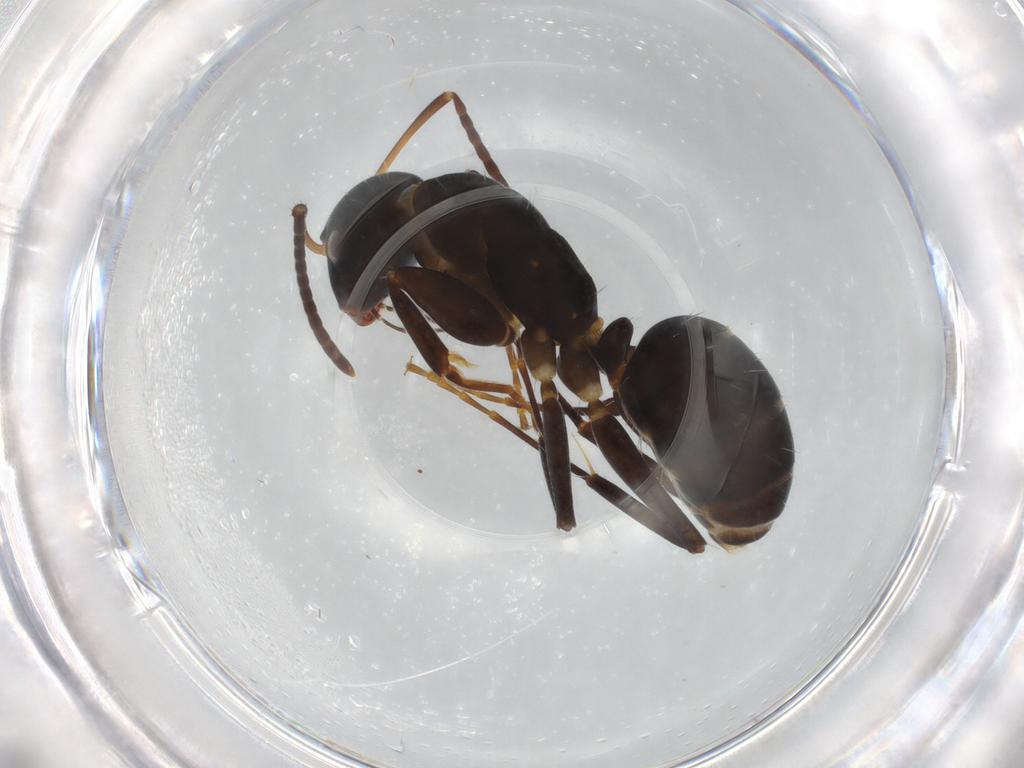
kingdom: Animalia
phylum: Arthropoda
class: Insecta
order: Hymenoptera
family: Formicidae
